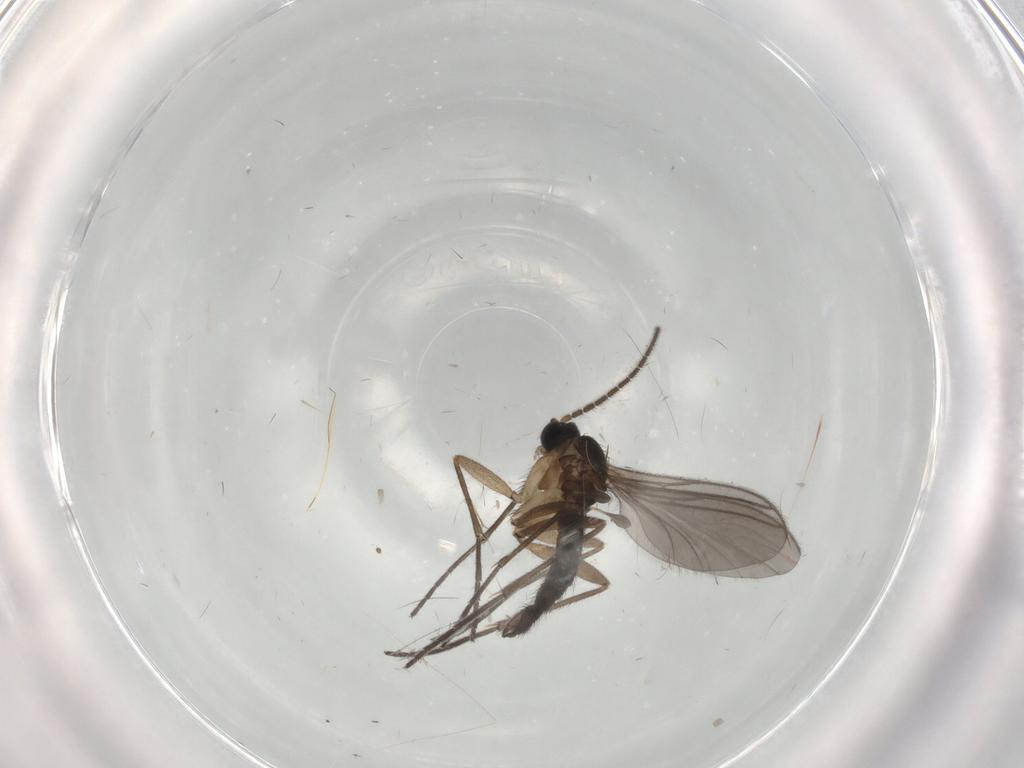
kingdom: Animalia
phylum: Arthropoda
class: Insecta
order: Diptera
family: Sciaridae
